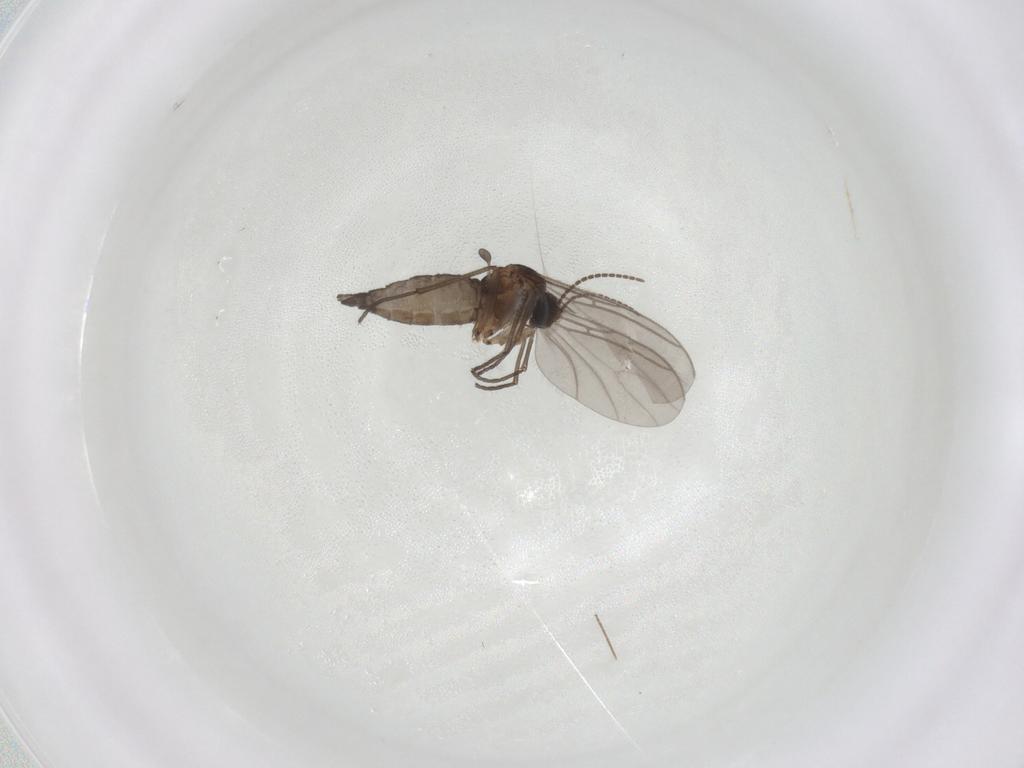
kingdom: Animalia
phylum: Arthropoda
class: Insecta
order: Diptera
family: Sciaridae
